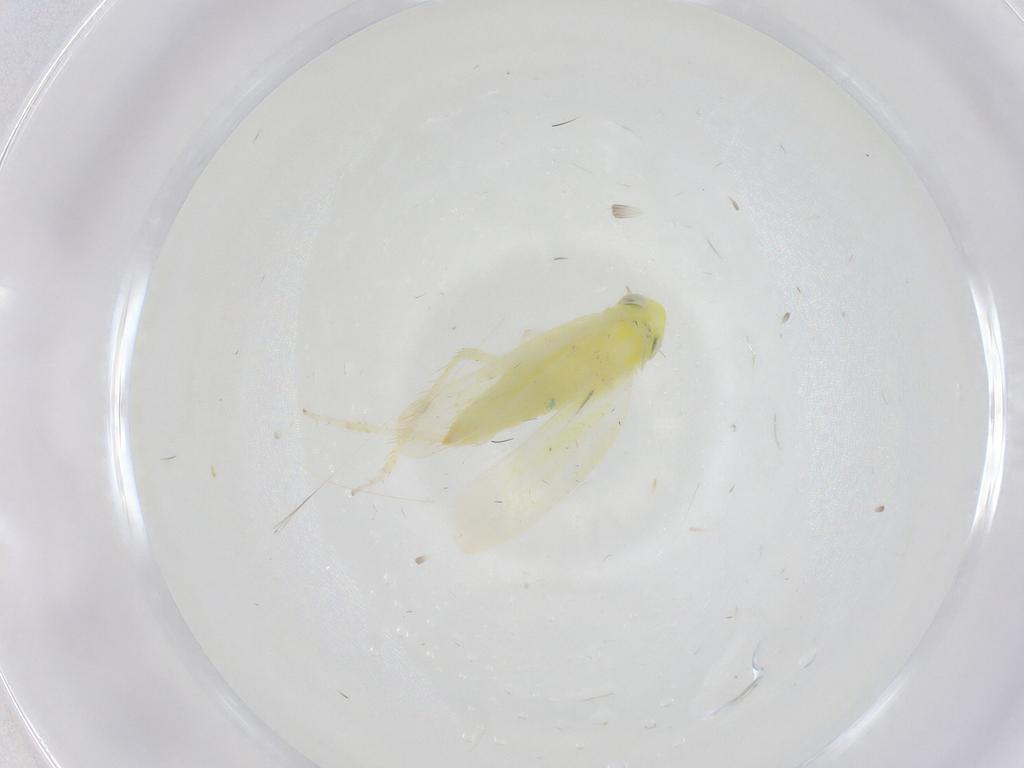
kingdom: Animalia
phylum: Arthropoda
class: Insecta
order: Hemiptera
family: Cicadellidae
